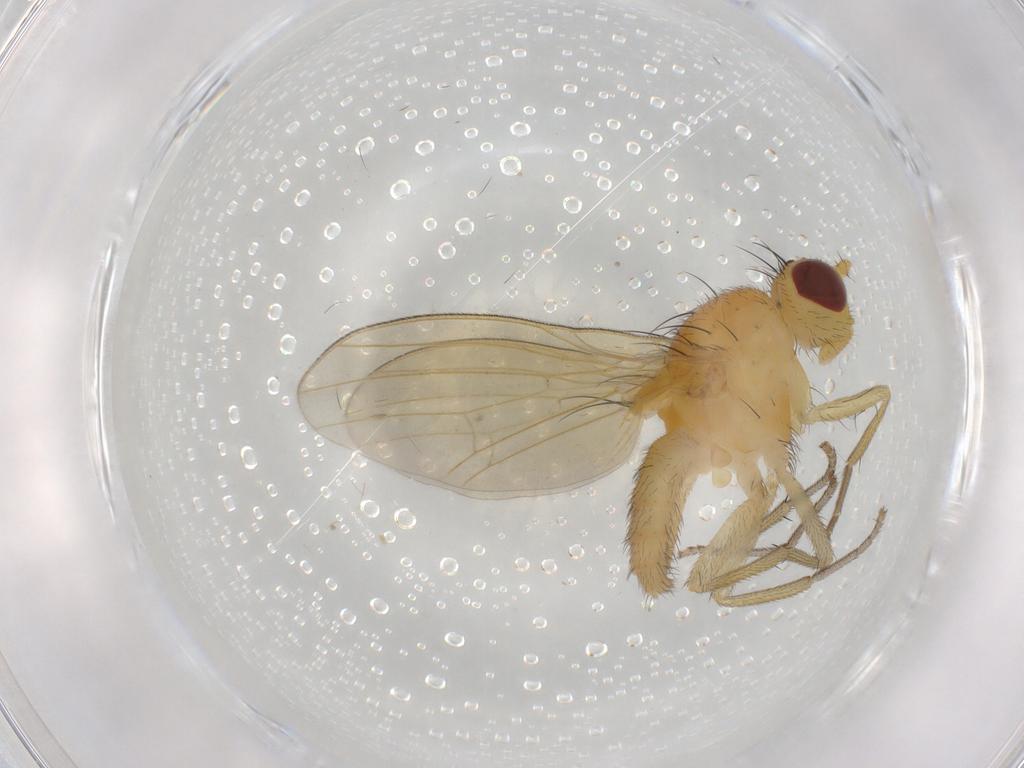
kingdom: Animalia
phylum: Arthropoda
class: Insecta
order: Diptera
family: Lauxaniidae
